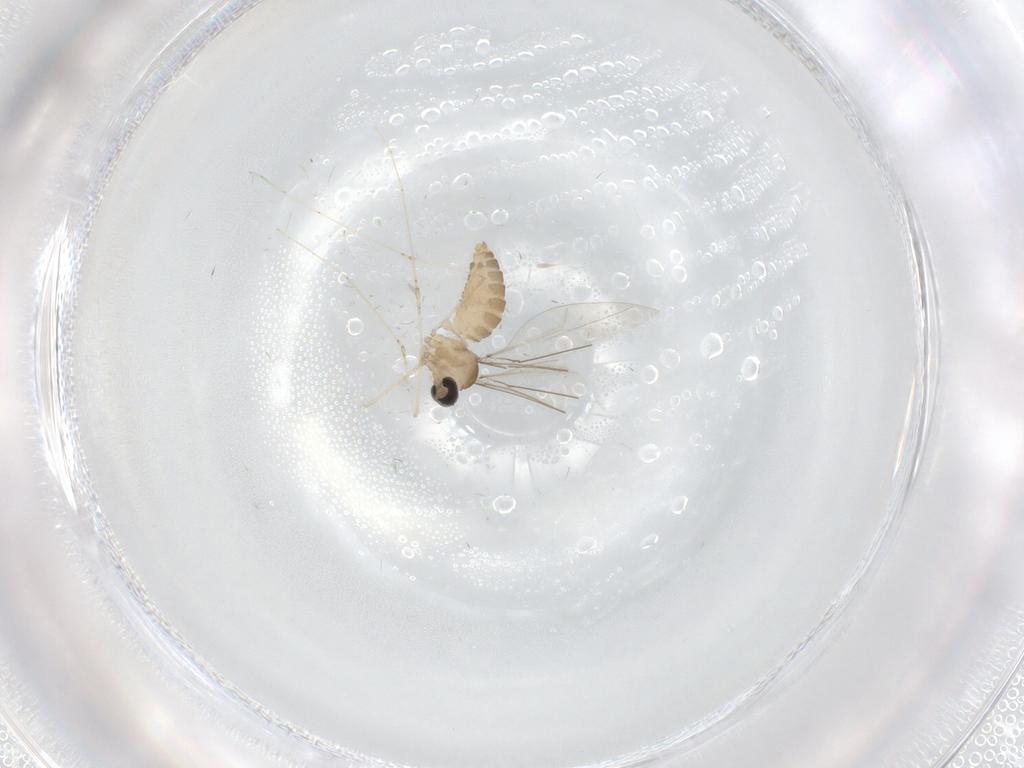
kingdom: Animalia
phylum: Arthropoda
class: Insecta
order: Diptera
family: Cecidomyiidae
